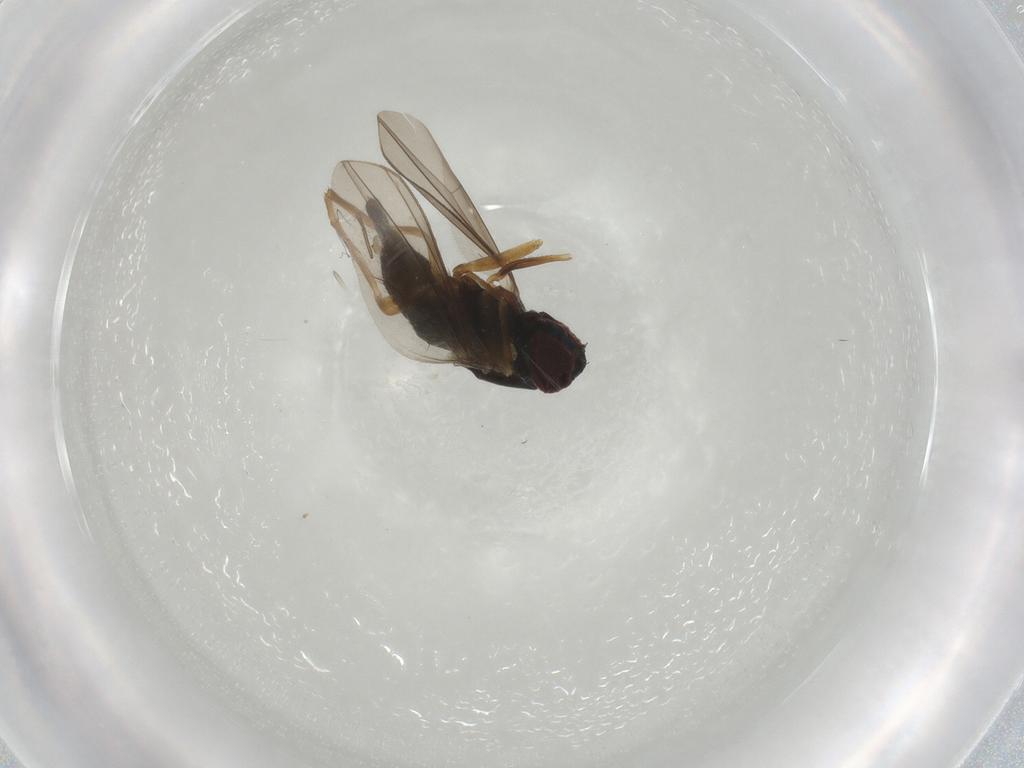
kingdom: Animalia
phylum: Arthropoda
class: Insecta
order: Diptera
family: Dolichopodidae
